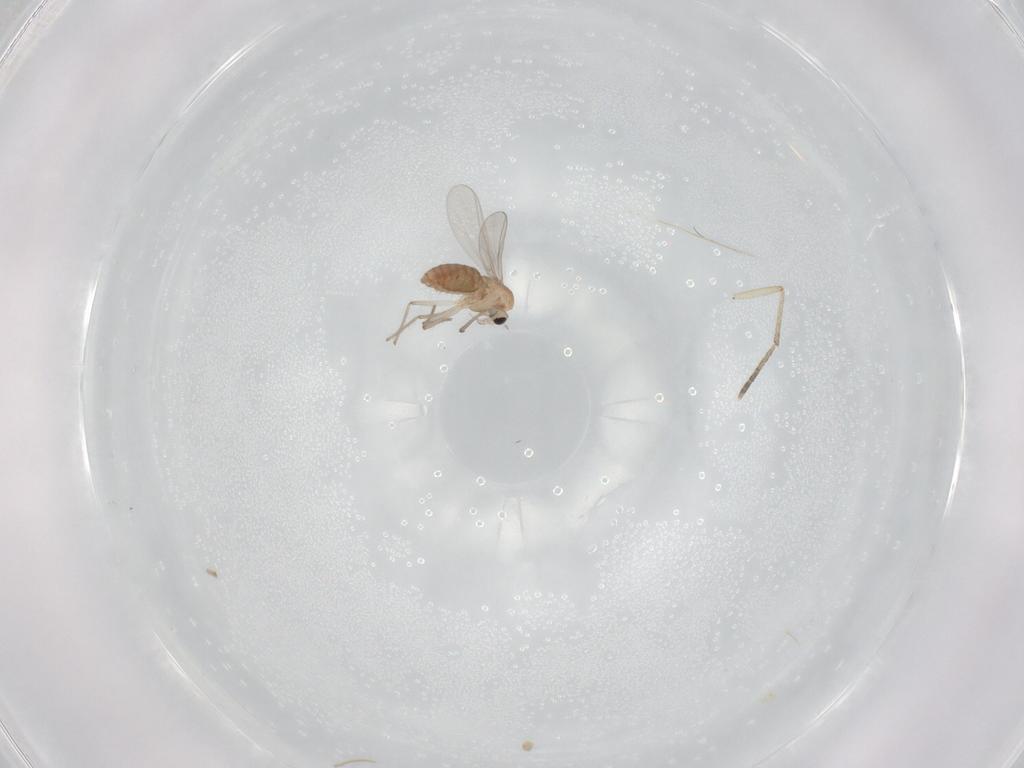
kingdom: Animalia
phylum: Arthropoda
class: Insecta
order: Diptera
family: Chironomidae
